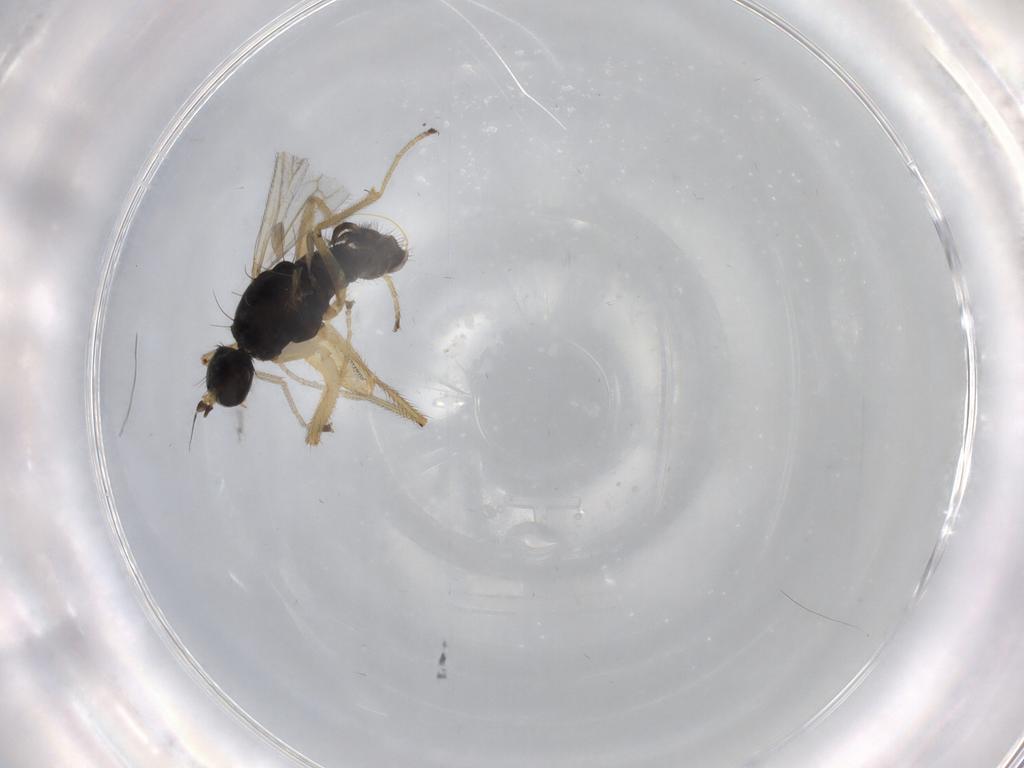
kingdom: Animalia
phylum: Arthropoda
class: Insecta
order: Diptera
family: Empididae
